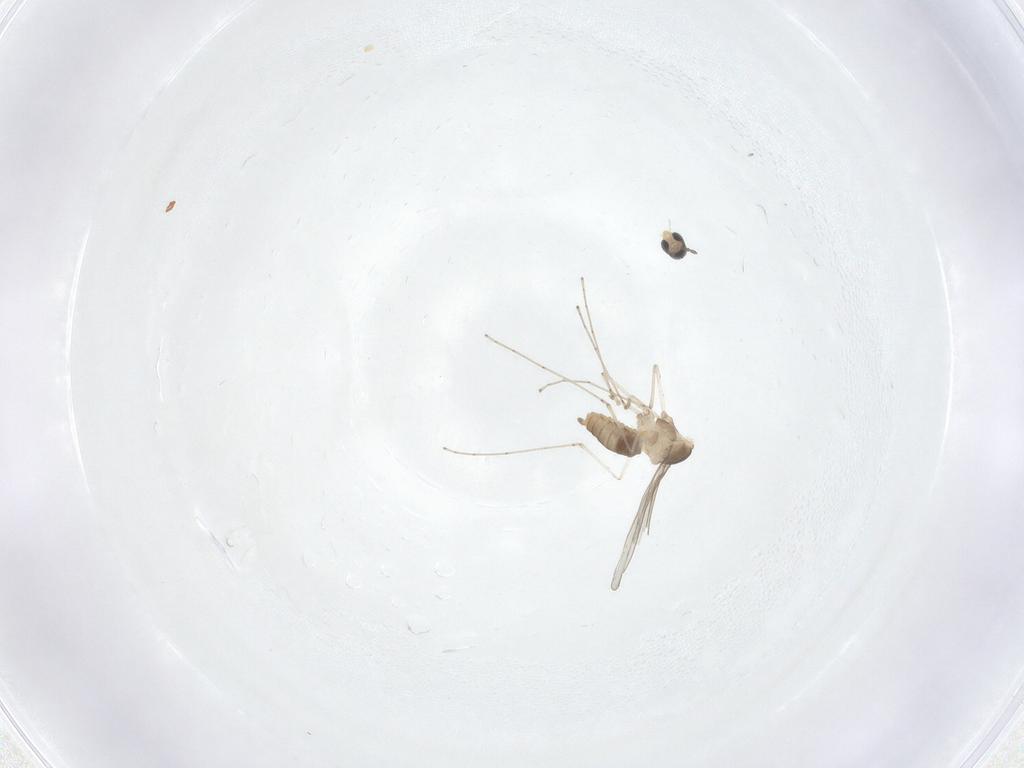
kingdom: Animalia
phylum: Arthropoda
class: Insecta
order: Diptera
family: Cecidomyiidae
